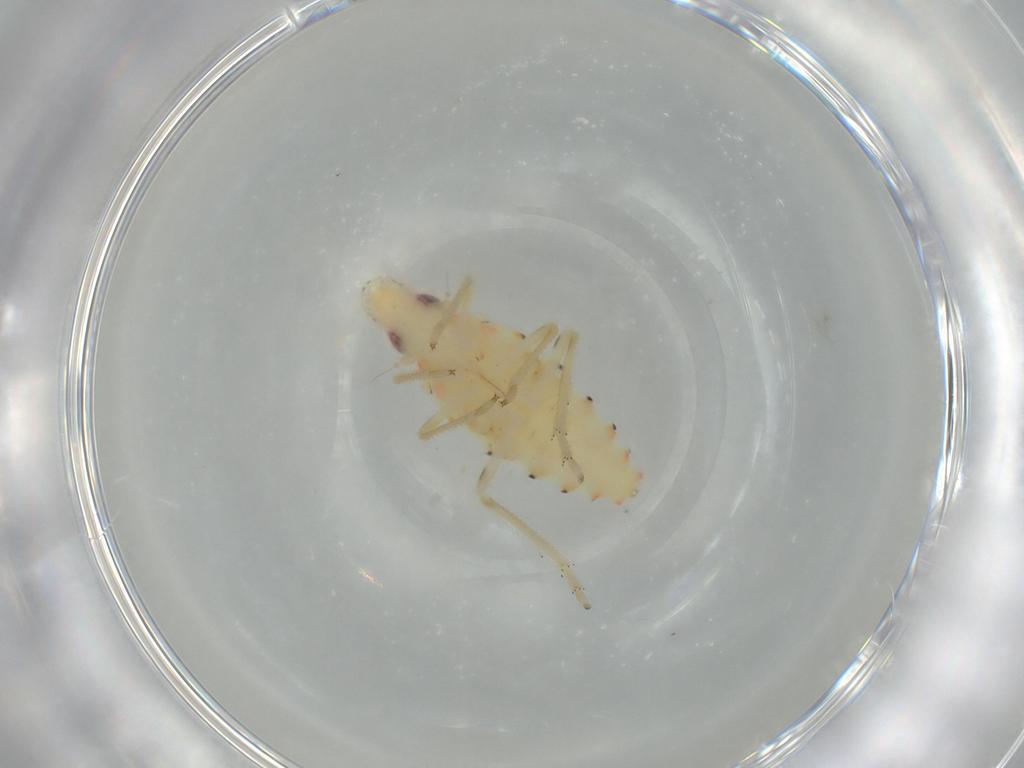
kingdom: Animalia
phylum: Arthropoda
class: Insecta
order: Hemiptera
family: Tropiduchidae
